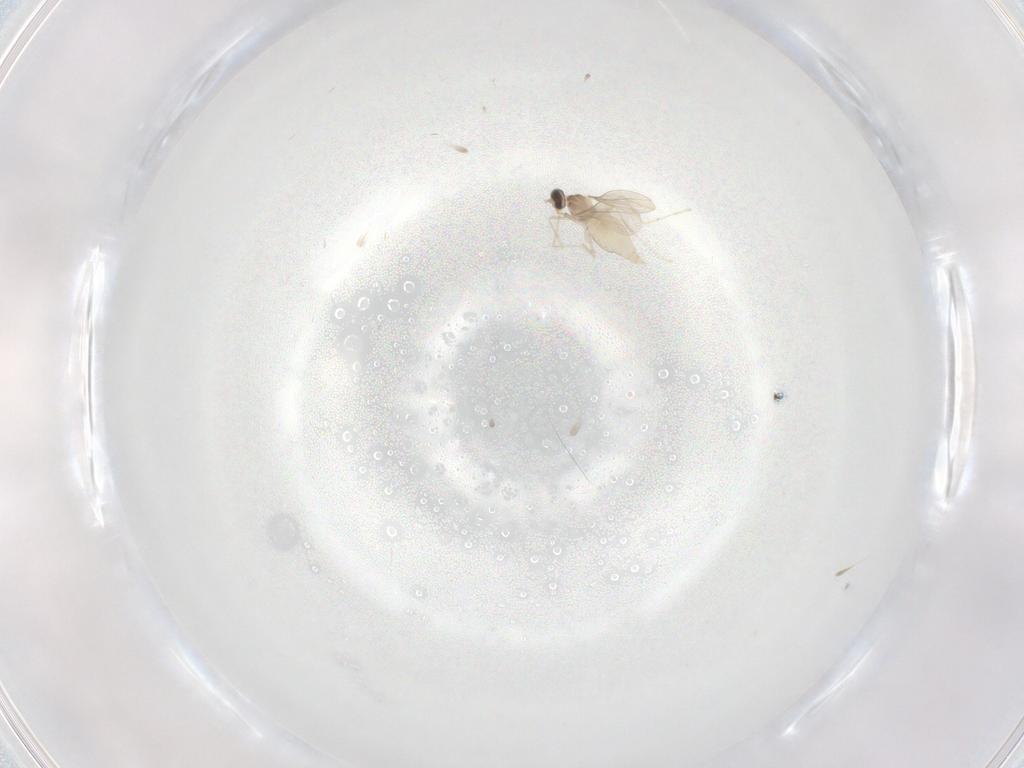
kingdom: Animalia
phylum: Arthropoda
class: Insecta
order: Diptera
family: Cecidomyiidae
